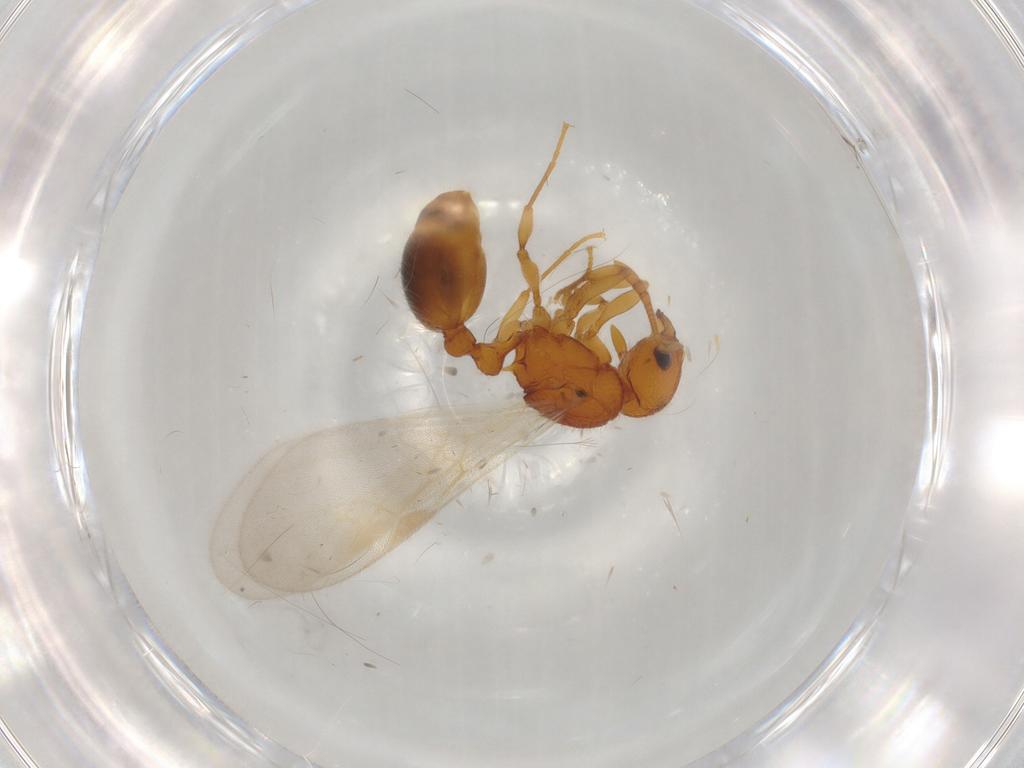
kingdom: Animalia
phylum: Arthropoda
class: Insecta
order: Hymenoptera
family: Formicidae
